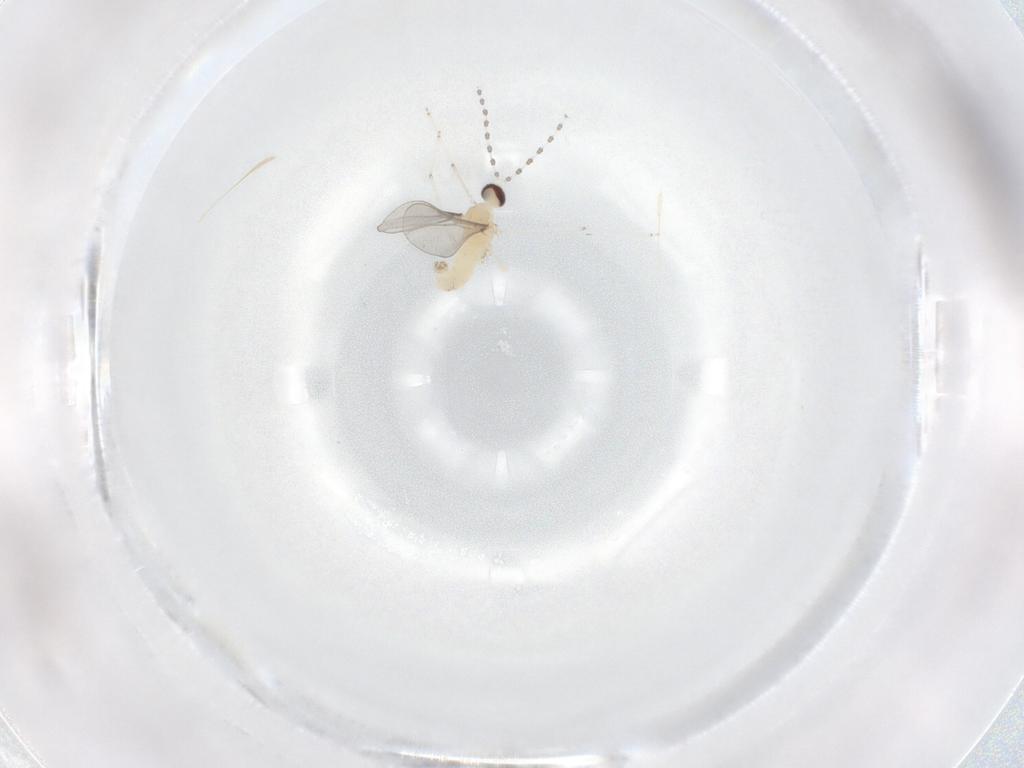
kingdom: Animalia
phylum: Arthropoda
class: Insecta
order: Diptera
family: Cecidomyiidae
